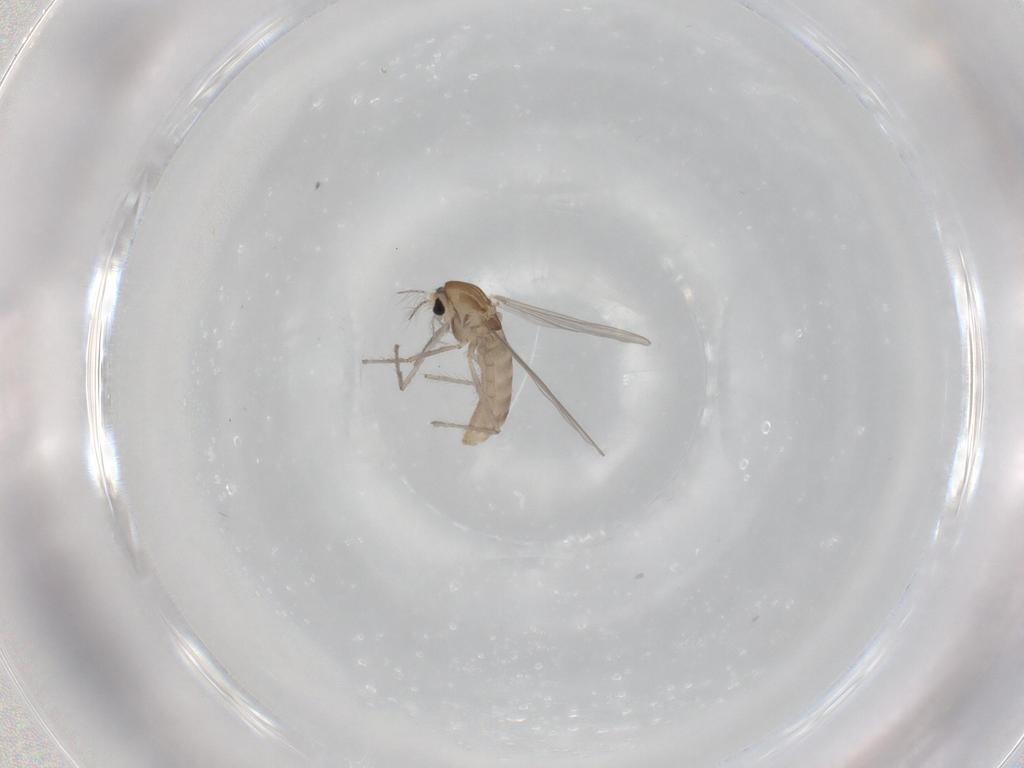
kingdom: Animalia
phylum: Arthropoda
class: Insecta
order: Diptera
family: Chironomidae
